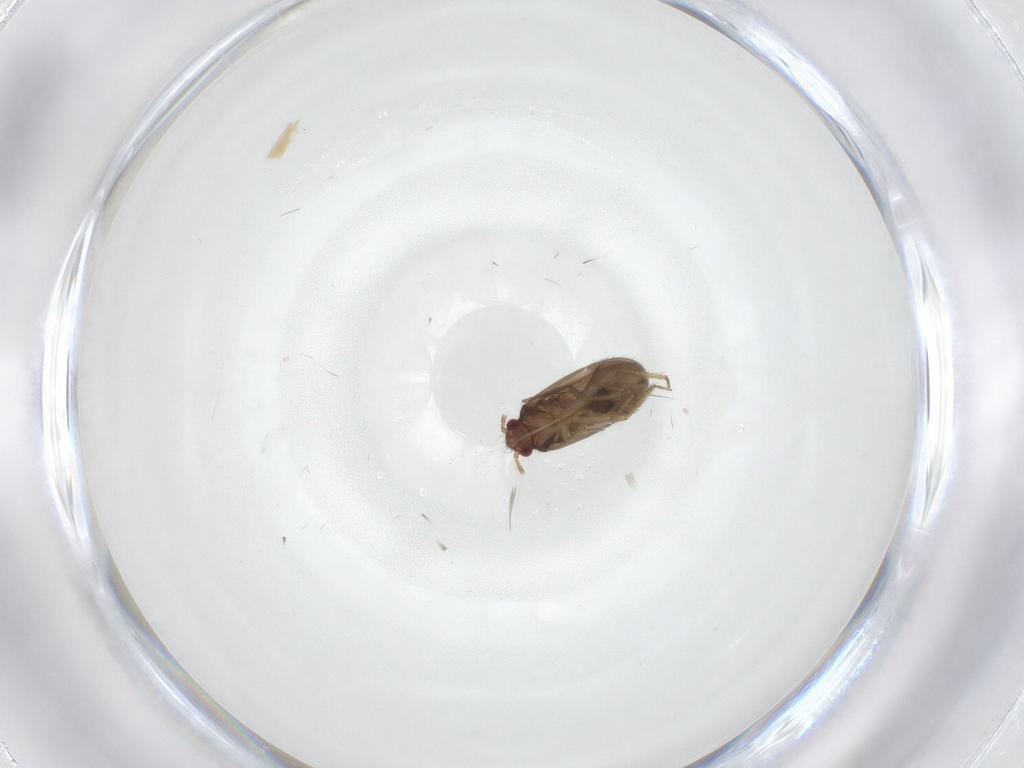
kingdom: Animalia
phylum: Arthropoda
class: Insecta
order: Hemiptera
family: Ceratocombidae
